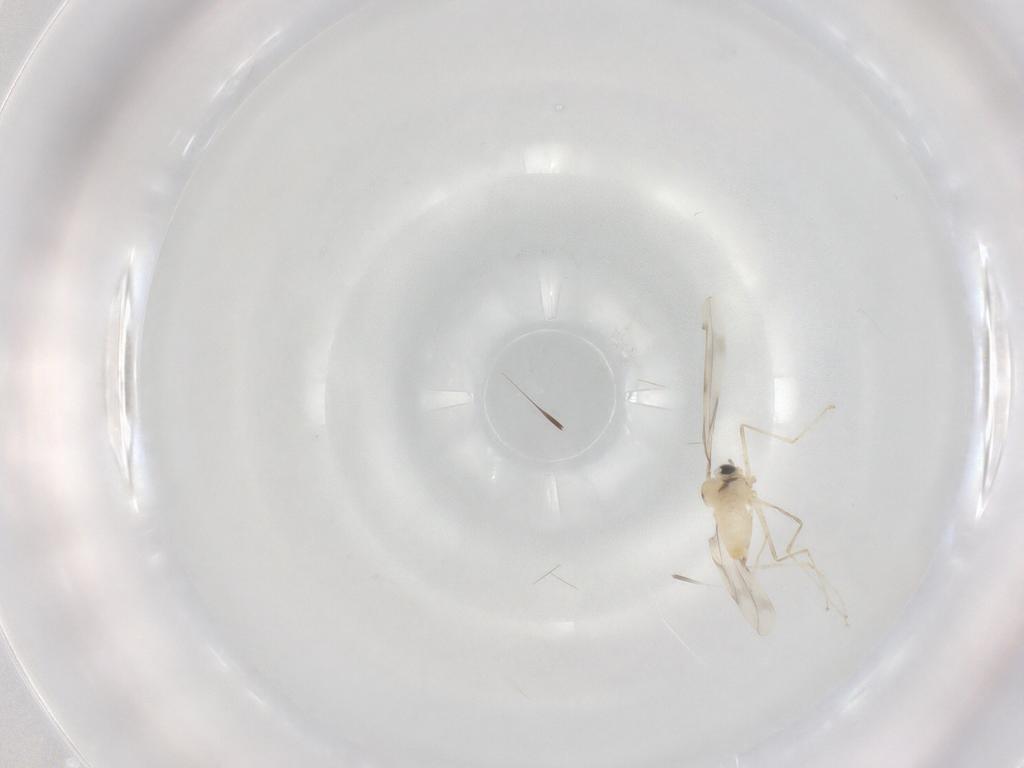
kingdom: Animalia
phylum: Arthropoda
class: Insecta
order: Diptera
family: Cecidomyiidae
